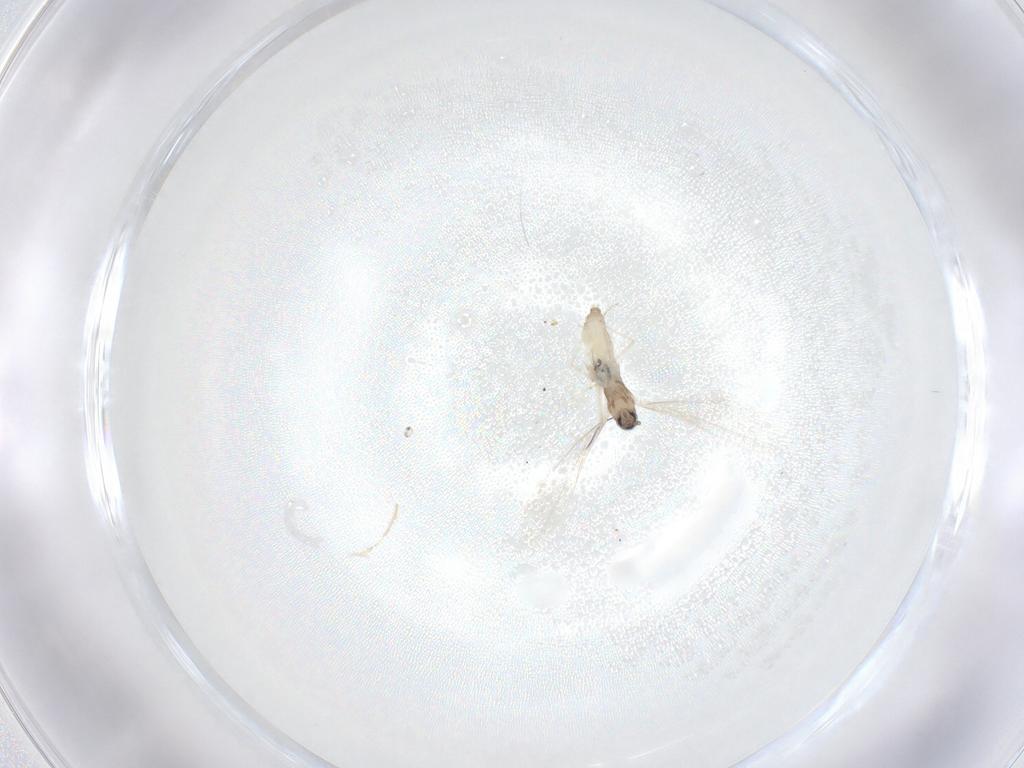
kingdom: Animalia
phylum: Arthropoda
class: Insecta
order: Diptera
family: Cecidomyiidae
